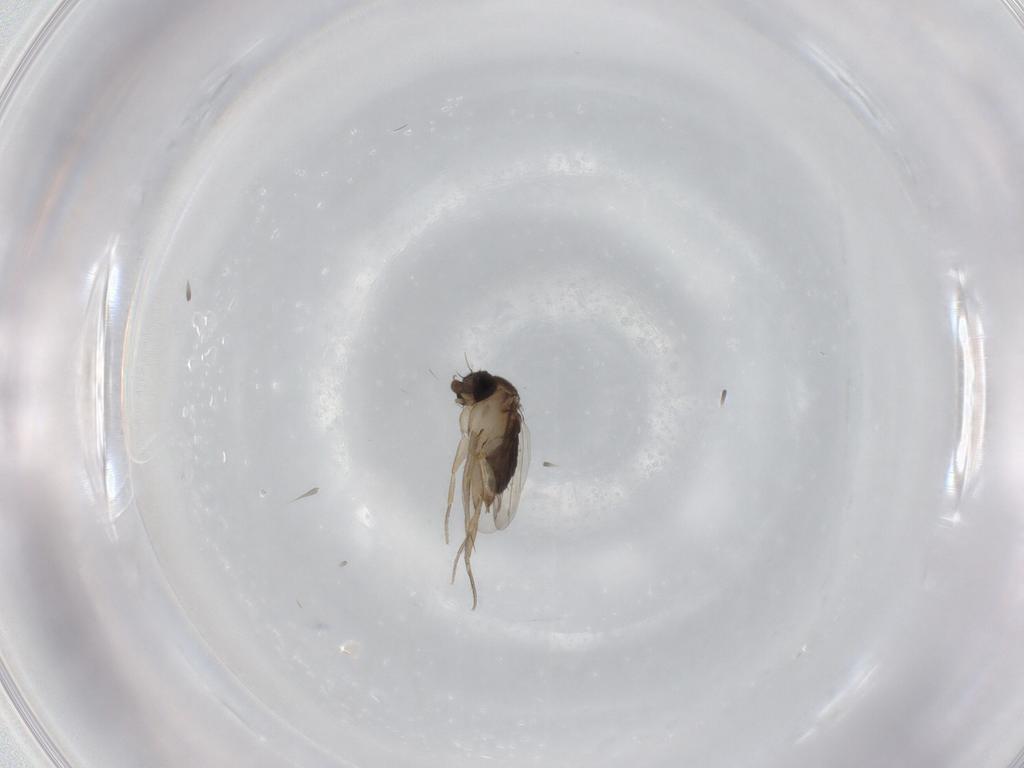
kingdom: Animalia
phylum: Arthropoda
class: Insecta
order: Diptera
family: Phoridae
